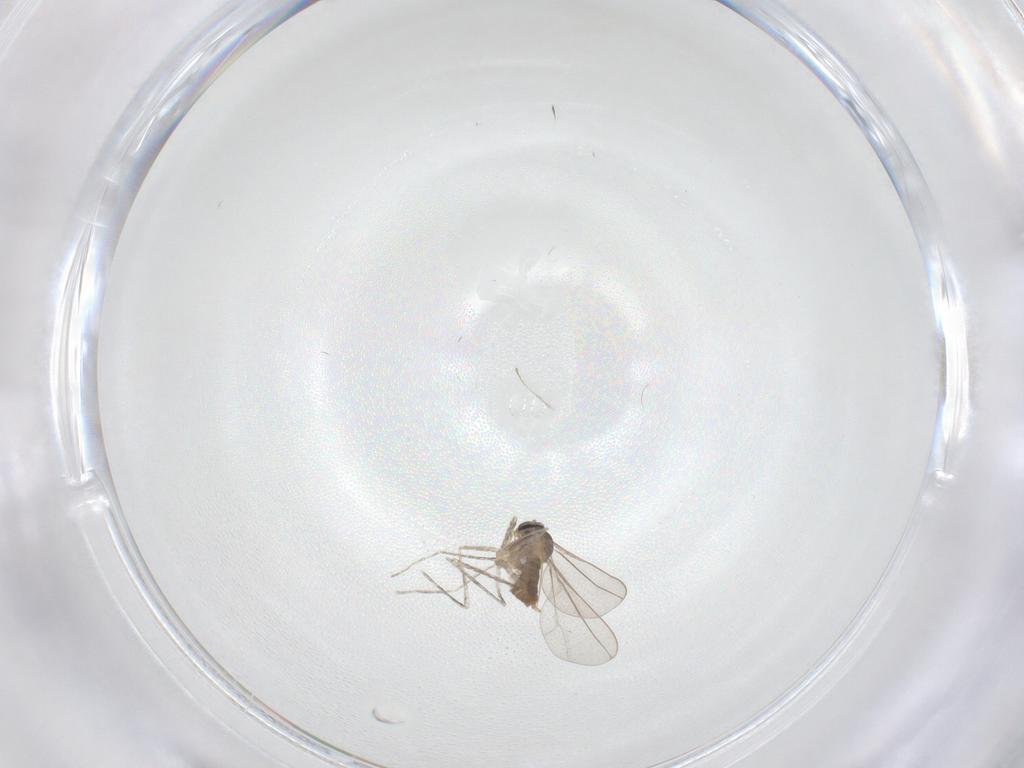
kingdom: Animalia
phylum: Arthropoda
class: Insecta
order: Diptera
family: Cecidomyiidae
